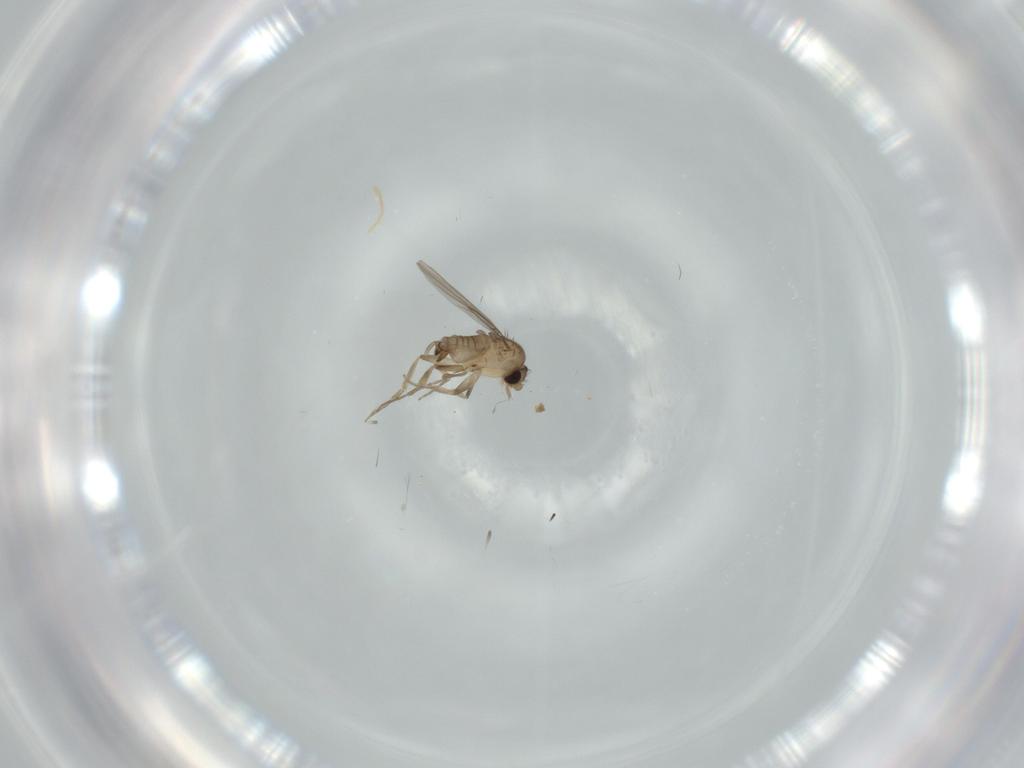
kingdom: Animalia
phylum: Arthropoda
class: Insecta
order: Diptera
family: Phoridae
